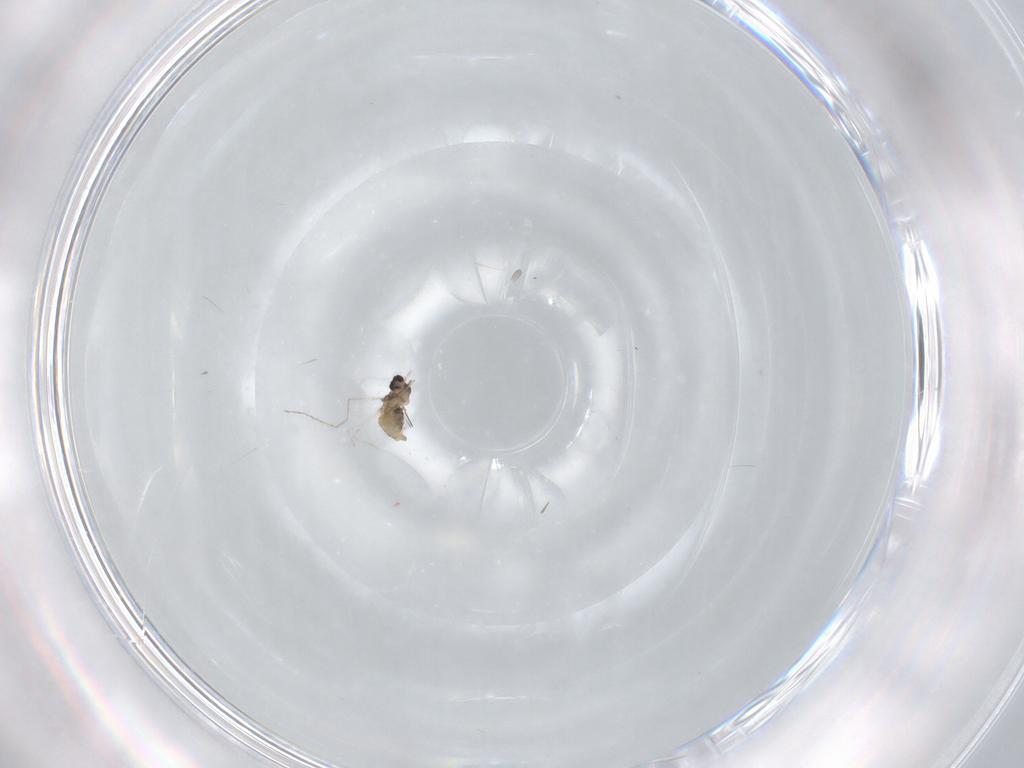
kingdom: Animalia
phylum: Arthropoda
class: Insecta
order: Diptera
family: Cecidomyiidae
